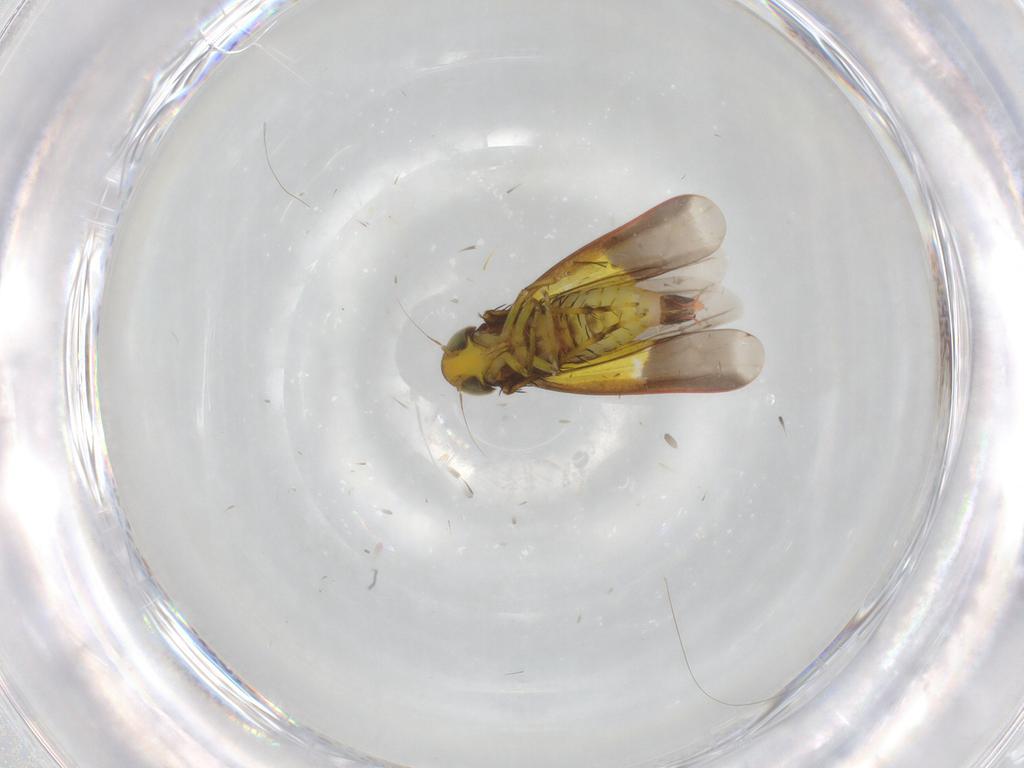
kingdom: Animalia
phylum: Arthropoda
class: Insecta
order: Hemiptera
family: Cicadellidae
